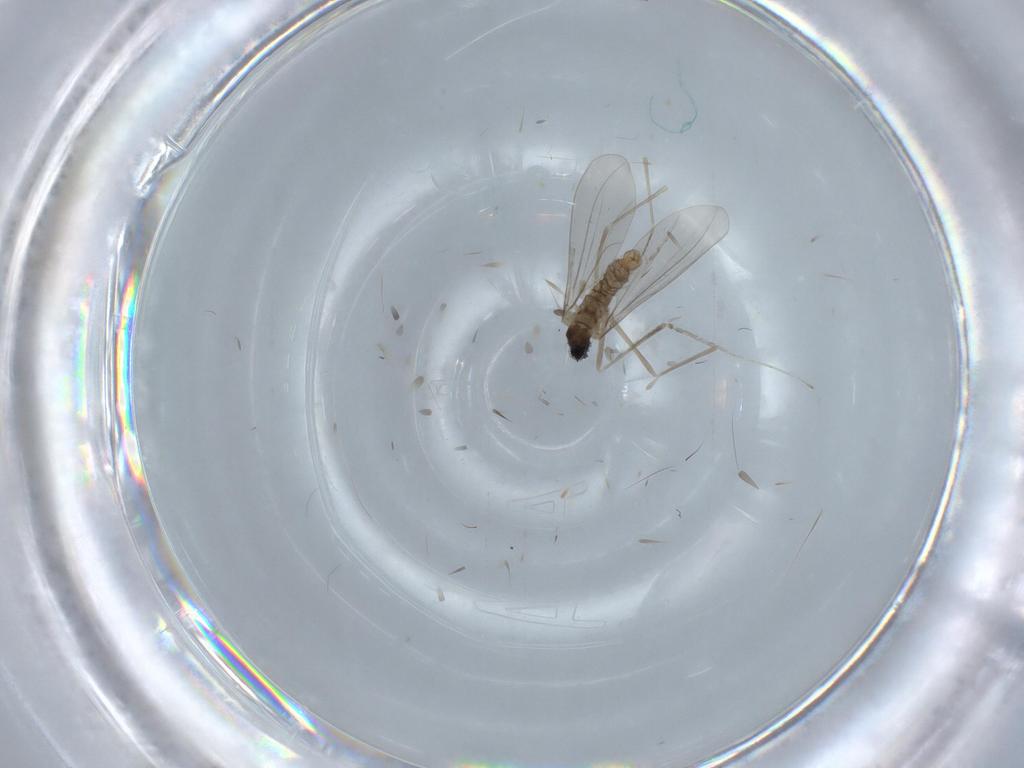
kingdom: Animalia
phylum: Arthropoda
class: Insecta
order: Diptera
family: Cecidomyiidae
